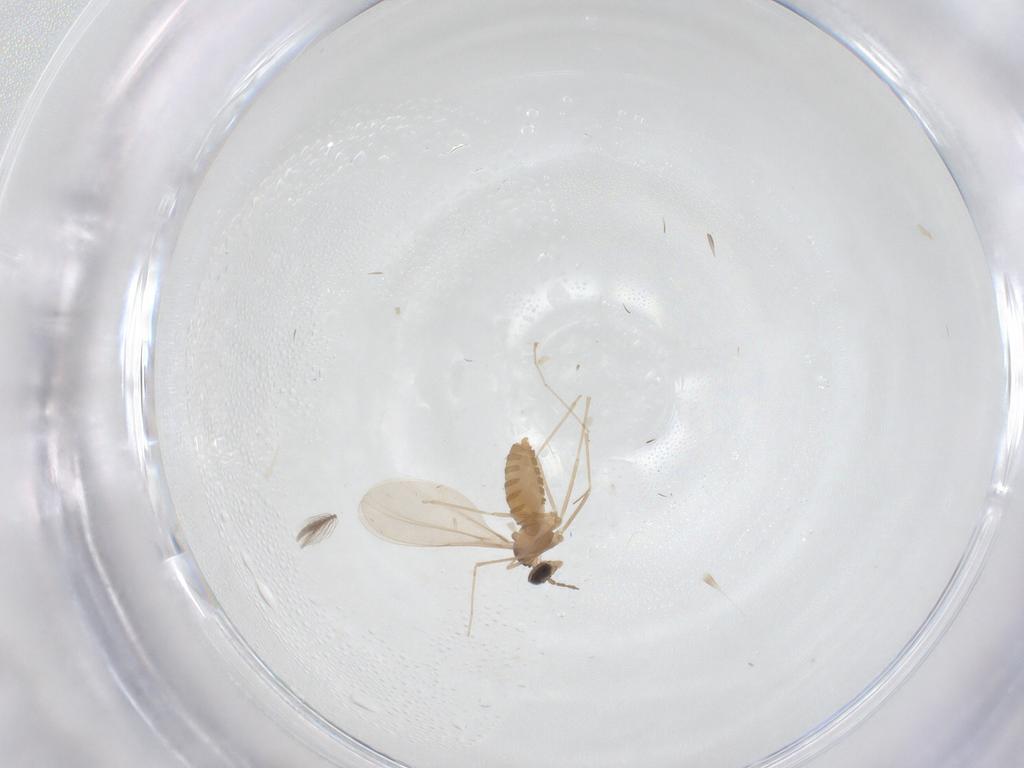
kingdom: Animalia
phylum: Arthropoda
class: Insecta
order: Diptera
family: Cecidomyiidae
